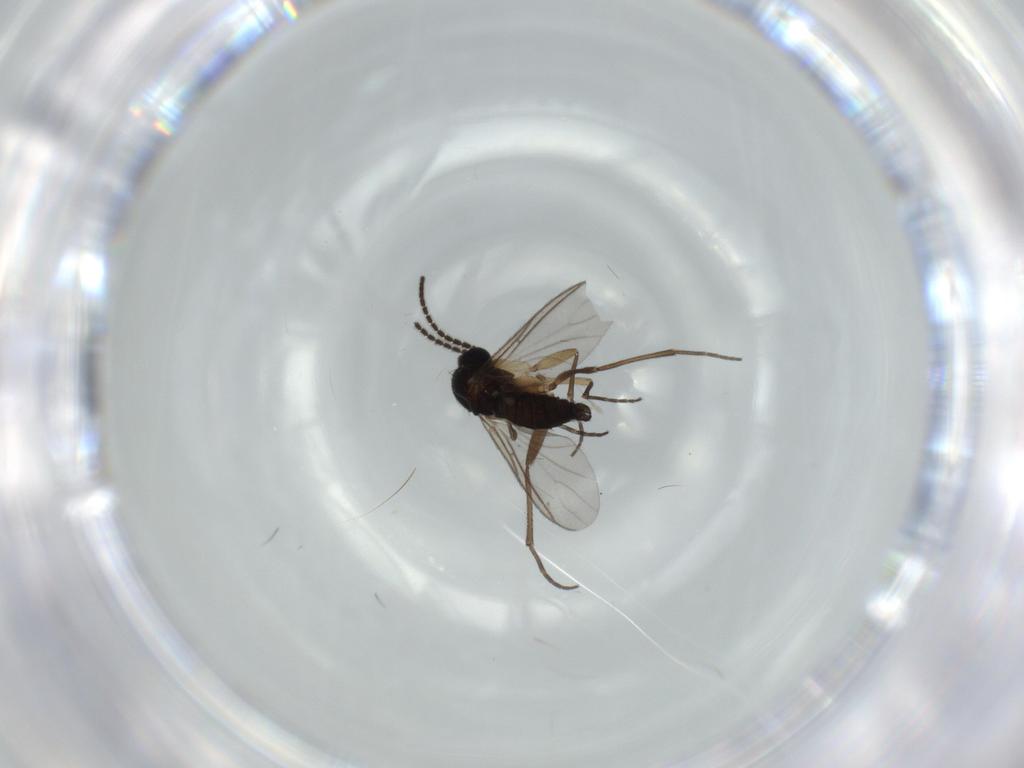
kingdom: Animalia
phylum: Arthropoda
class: Insecta
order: Diptera
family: Sciaridae
